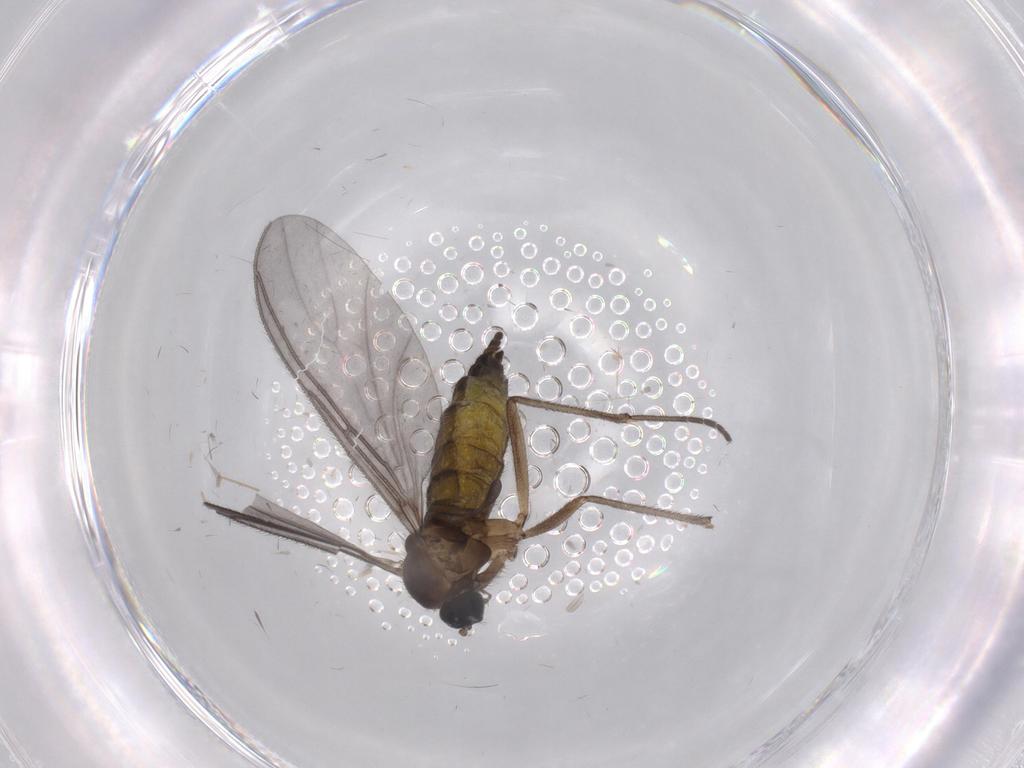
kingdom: Animalia
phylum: Arthropoda
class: Insecta
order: Diptera
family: Sciaridae
